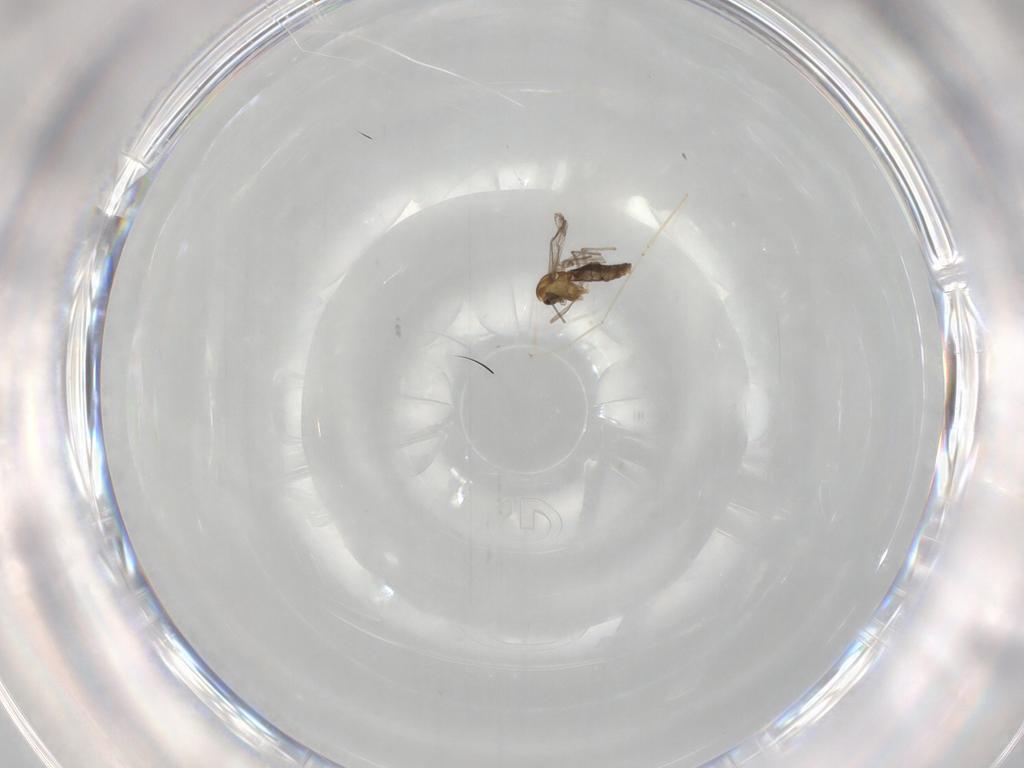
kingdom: Animalia
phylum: Arthropoda
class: Insecta
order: Diptera
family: Chironomidae
